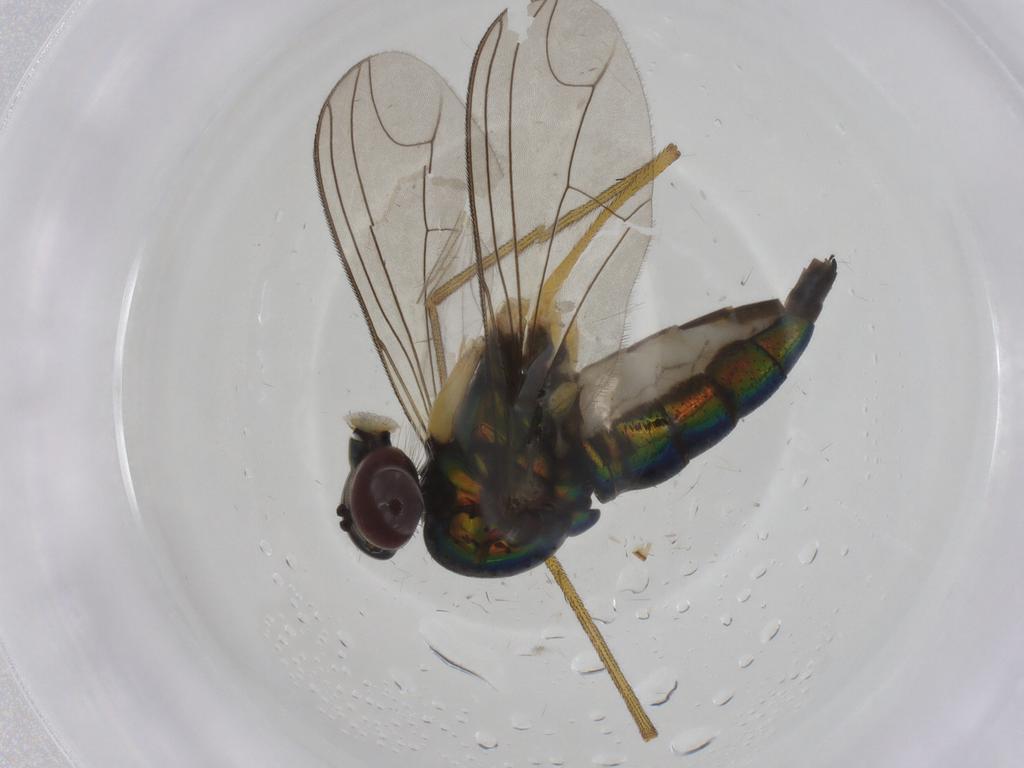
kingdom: Animalia
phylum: Arthropoda
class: Insecta
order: Diptera
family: Dolichopodidae
